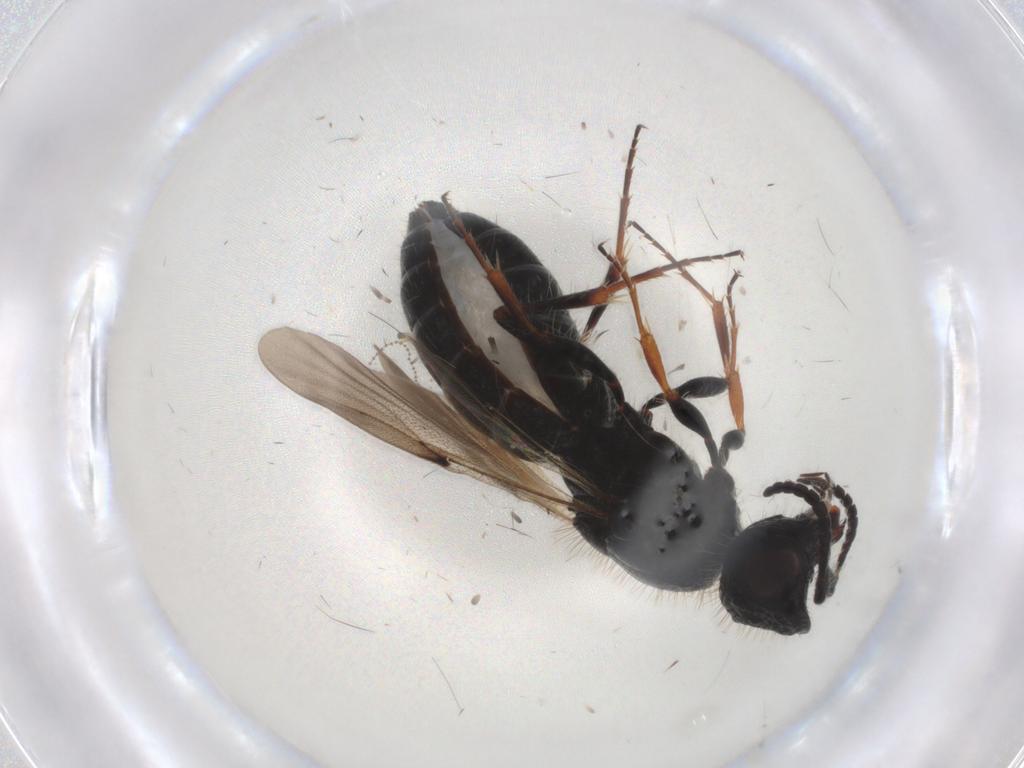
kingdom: Animalia
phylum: Arthropoda
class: Insecta
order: Hymenoptera
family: Scelionidae
